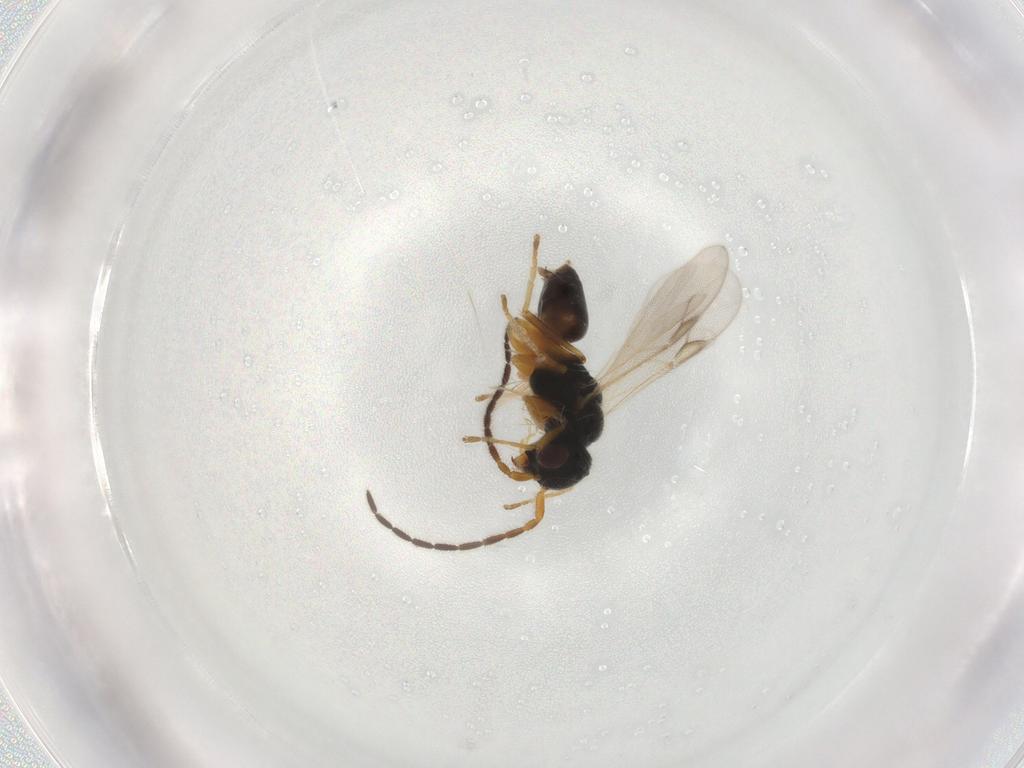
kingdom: Animalia
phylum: Arthropoda
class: Insecta
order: Hymenoptera
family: Dryinidae
